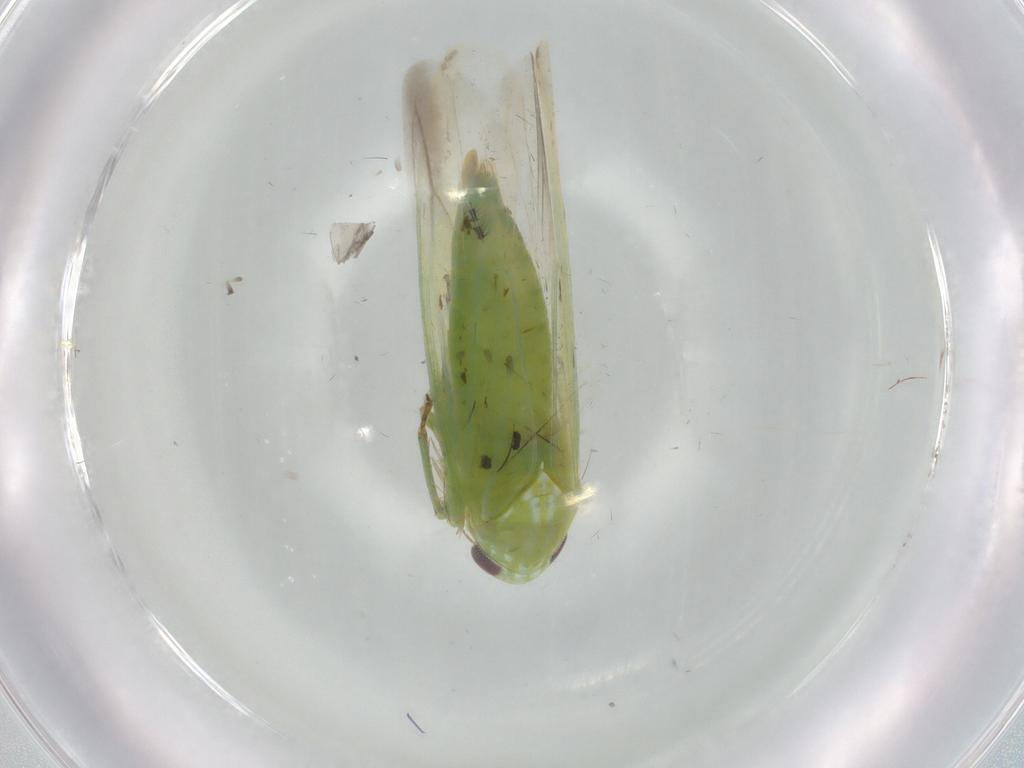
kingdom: Animalia
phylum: Arthropoda
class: Insecta
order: Hemiptera
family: Cicadellidae
